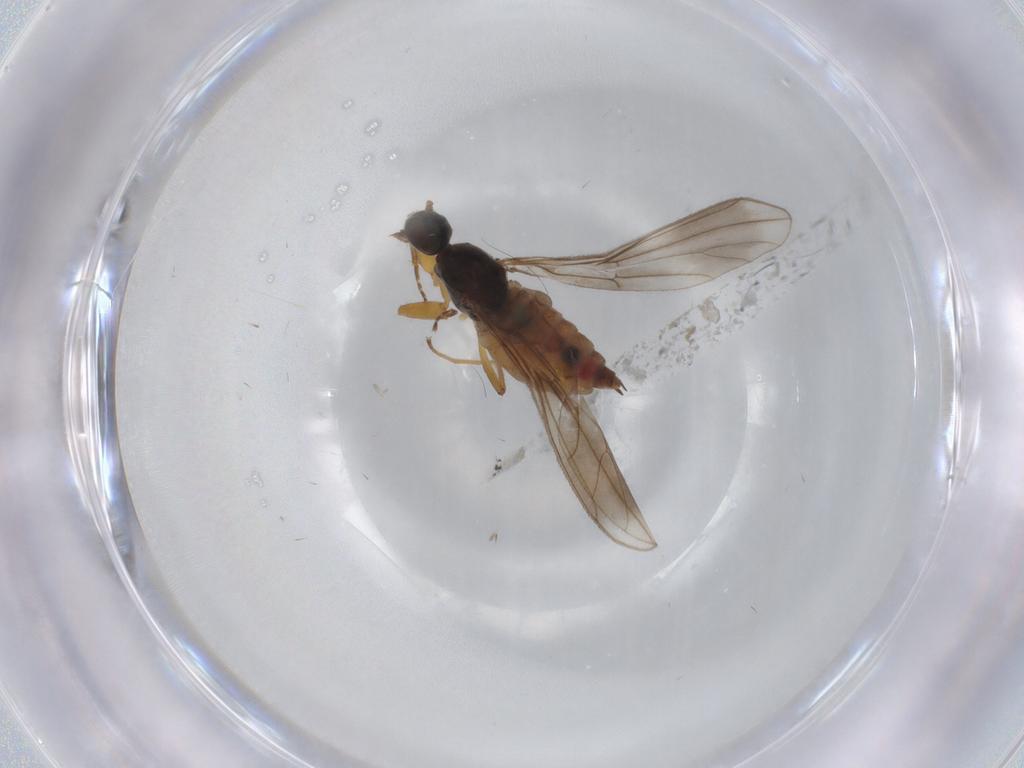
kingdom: Animalia
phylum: Arthropoda
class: Insecta
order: Diptera
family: Empididae
